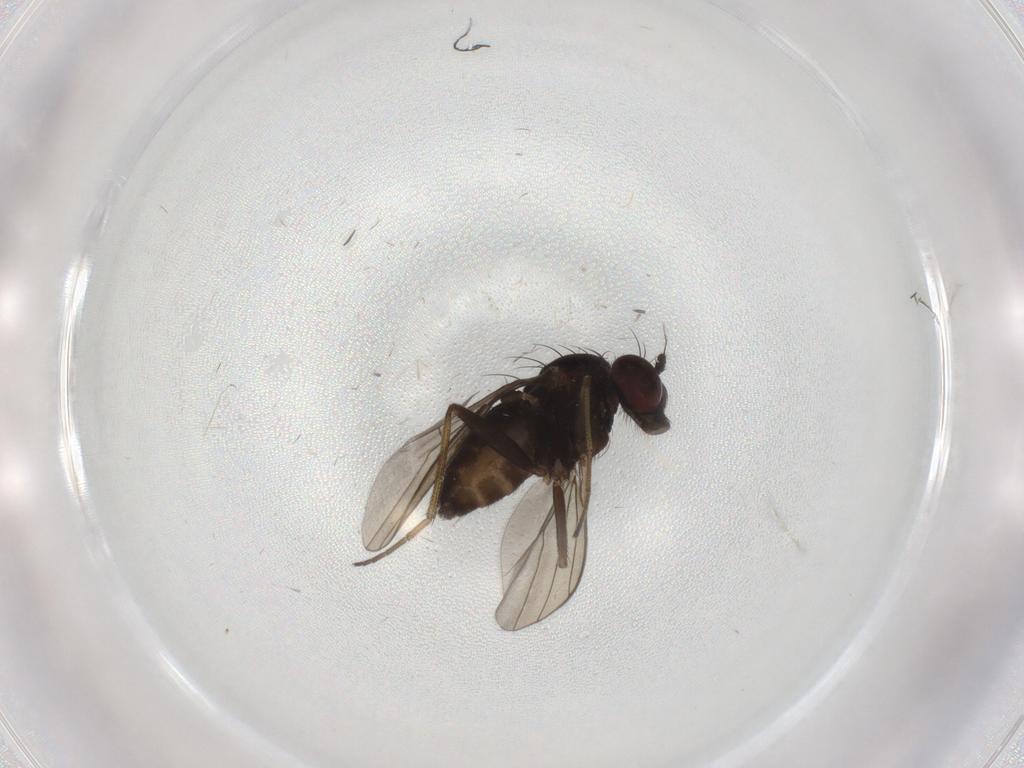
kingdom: Animalia
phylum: Arthropoda
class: Insecta
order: Diptera
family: Dolichopodidae
